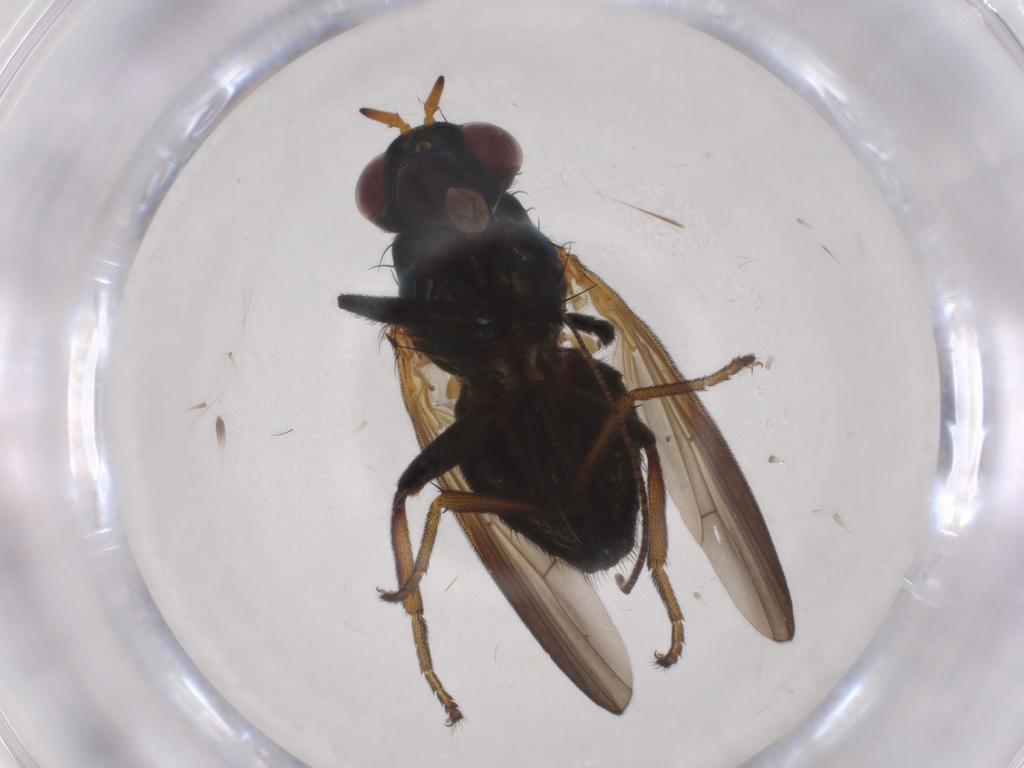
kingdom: Animalia
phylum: Arthropoda
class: Insecta
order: Diptera
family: Lauxaniidae
